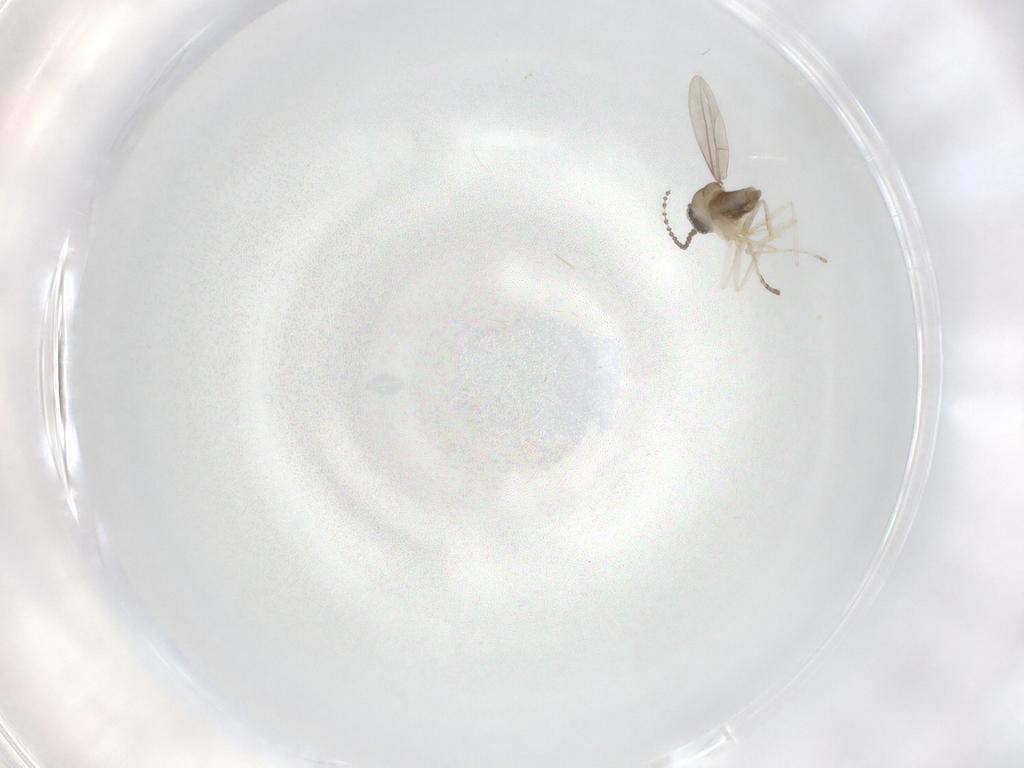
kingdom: Animalia
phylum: Arthropoda
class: Insecta
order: Diptera
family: Cecidomyiidae
